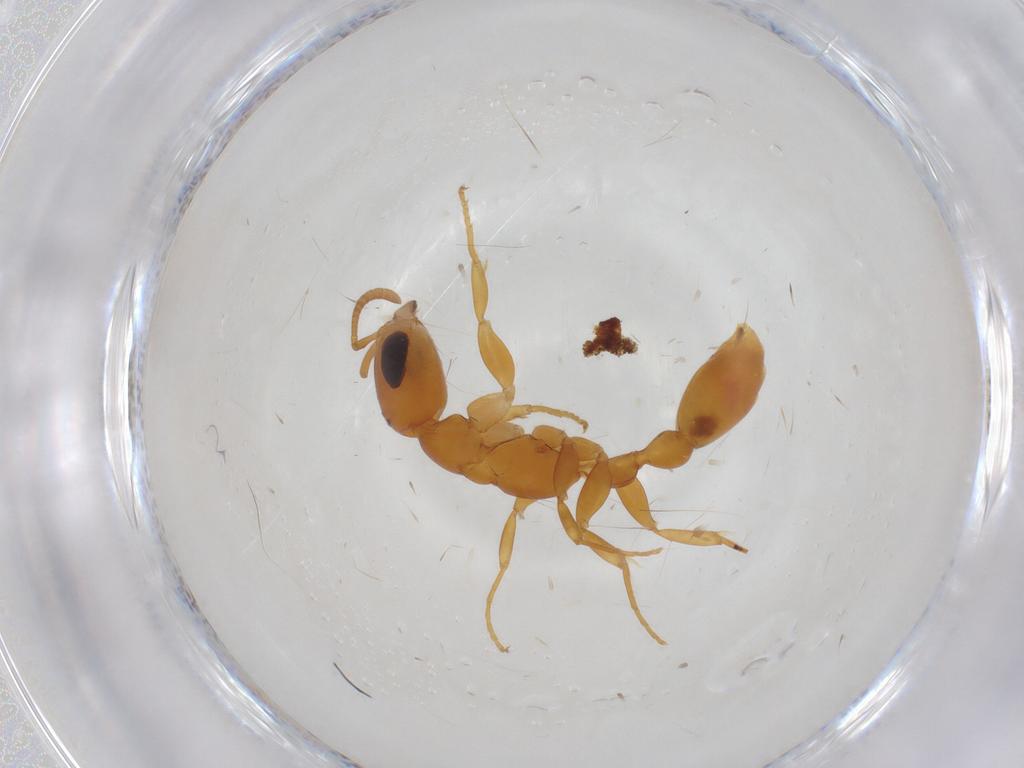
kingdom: Animalia
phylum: Arthropoda
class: Insecta
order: Hymenoptera
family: Formicidae
